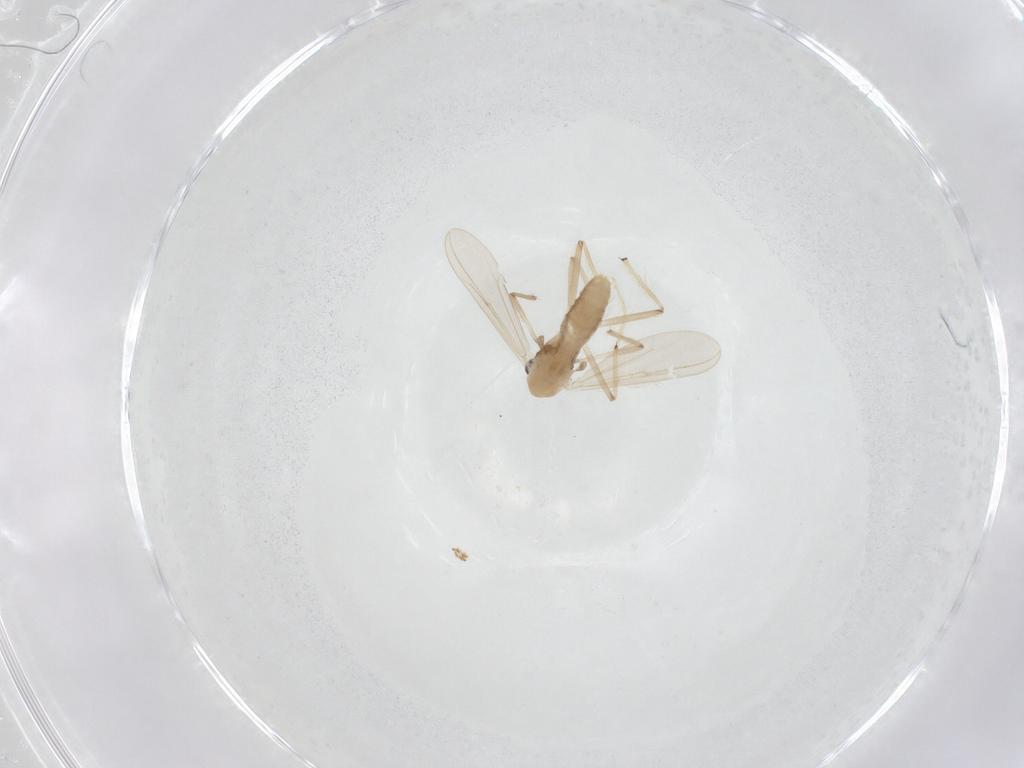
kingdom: Animalia
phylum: Arthropoda
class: Insecta
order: Diptera
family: Chironomidae
